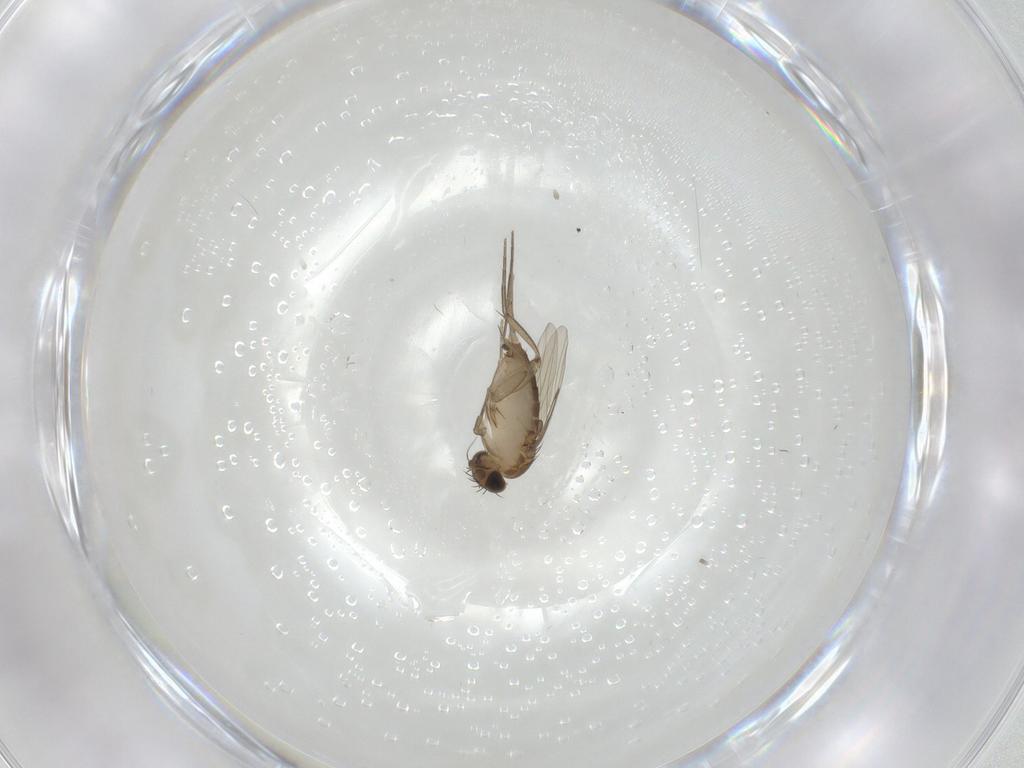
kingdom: Animalia
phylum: Arthropoda
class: Insecta
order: Diptera
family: Phoridae
